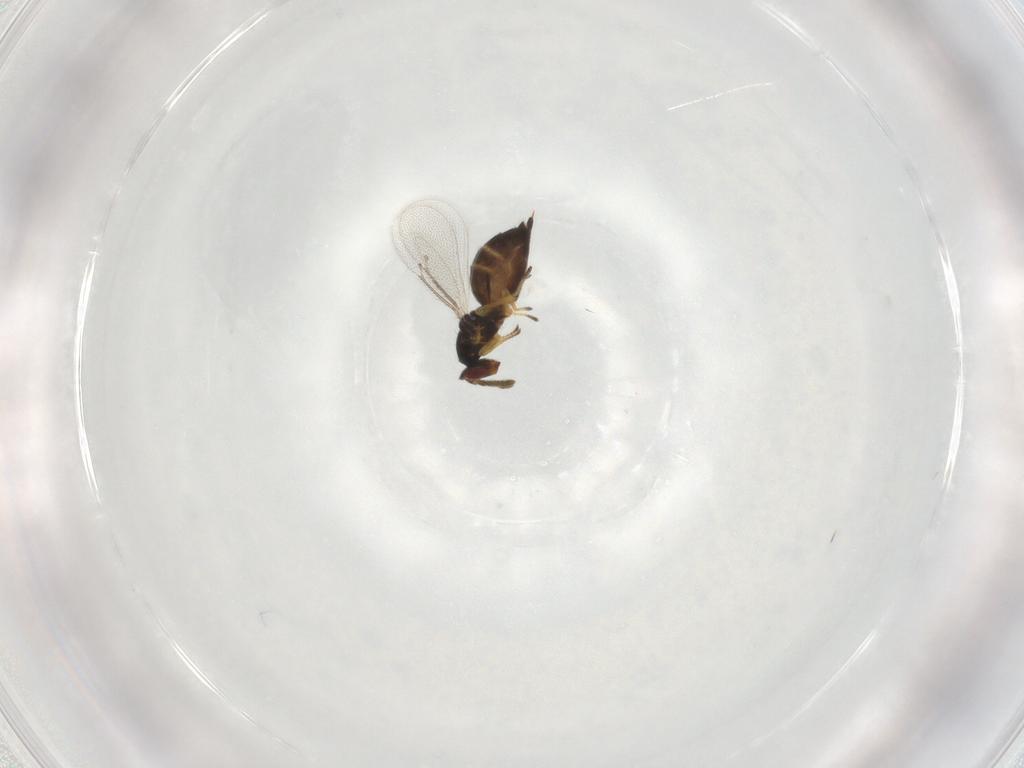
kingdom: Animalia
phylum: Arthropoda
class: Insecta
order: Hymenoptera
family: Eulophidae
